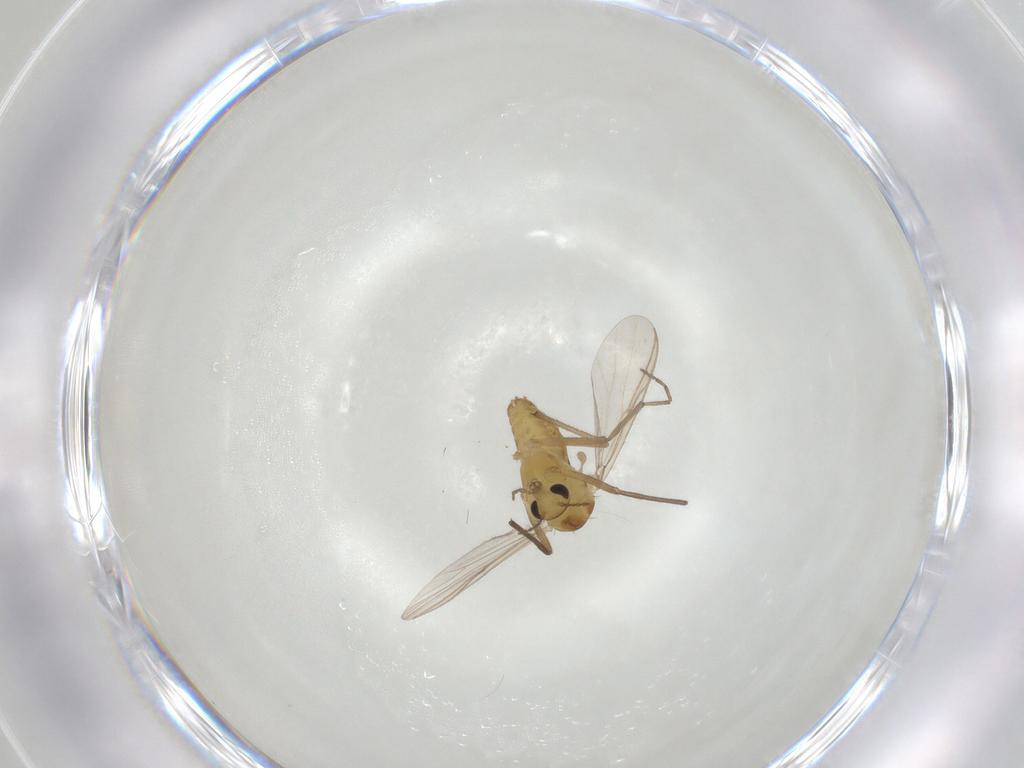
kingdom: Animalia
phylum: Arthropoda
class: Insecta
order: Diptera
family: Chironomidae
